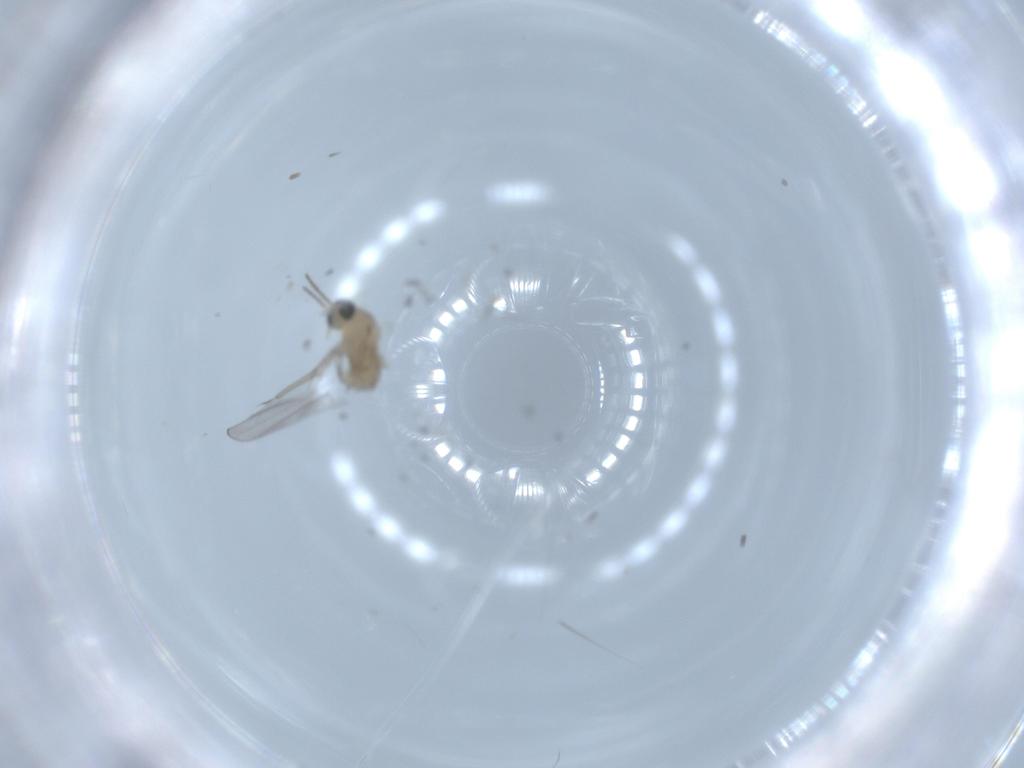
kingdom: Animalia
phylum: Arthropoda
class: Insecta
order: Diptera
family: Cecidomyiidae
